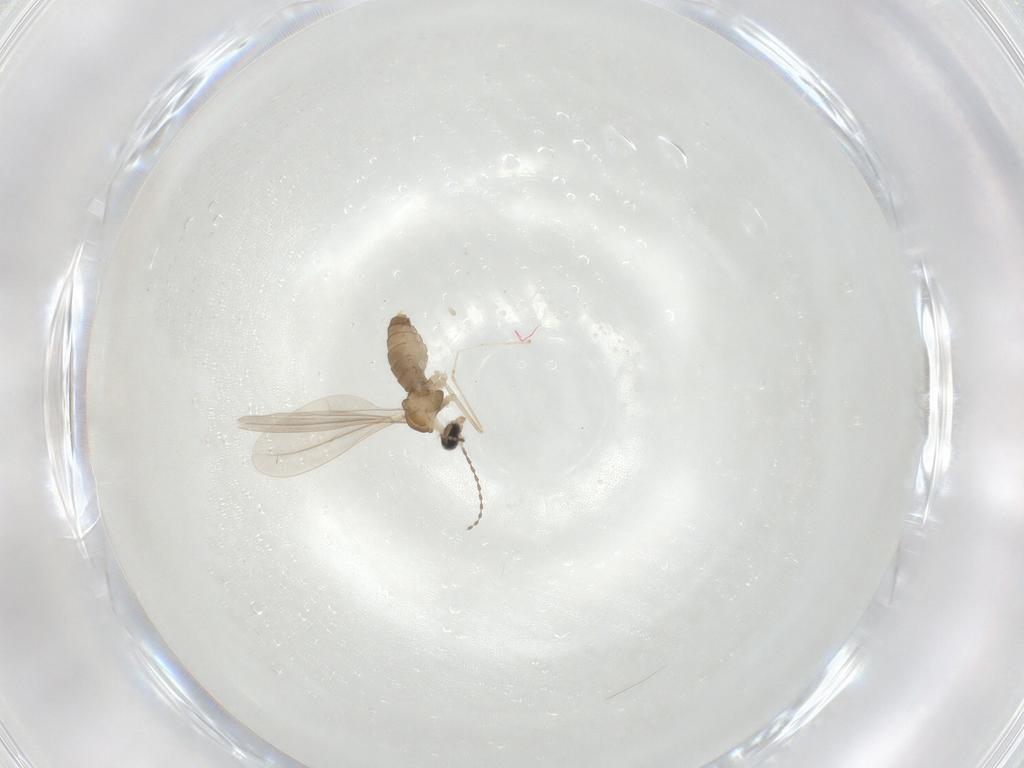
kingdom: Animalia
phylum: Arthropoda
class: Insecta
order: Diptera
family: Cecidomyiidae
